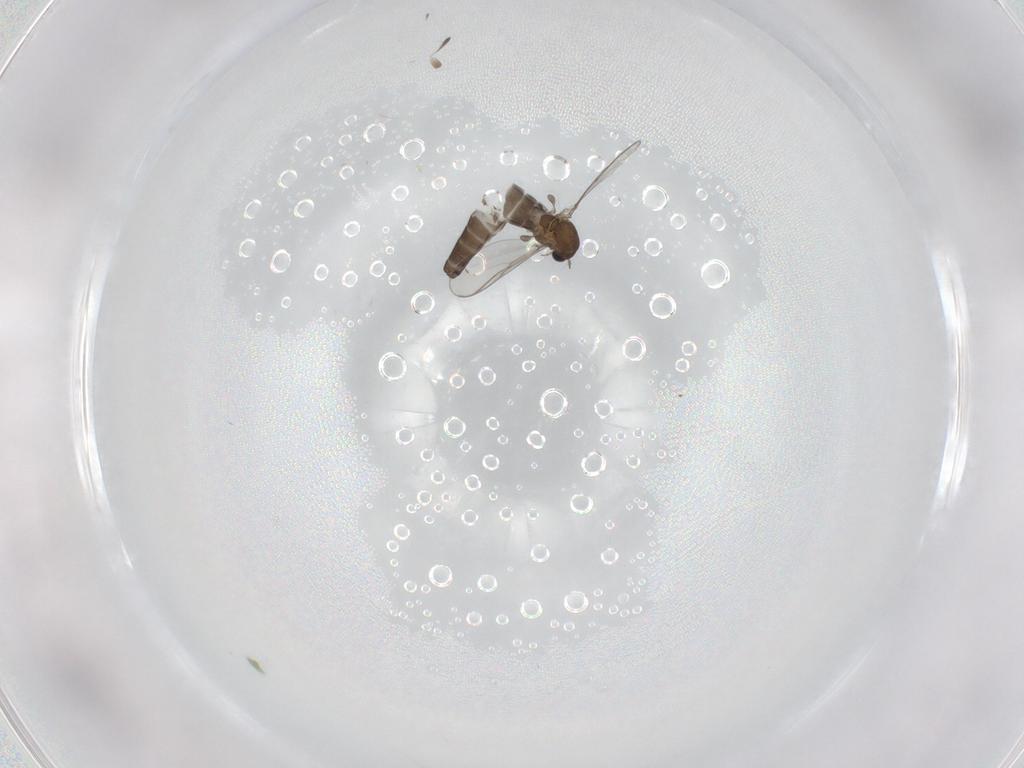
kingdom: Animalia
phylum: Arthropoda
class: Insecta
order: Diptera
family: Chironomidae
